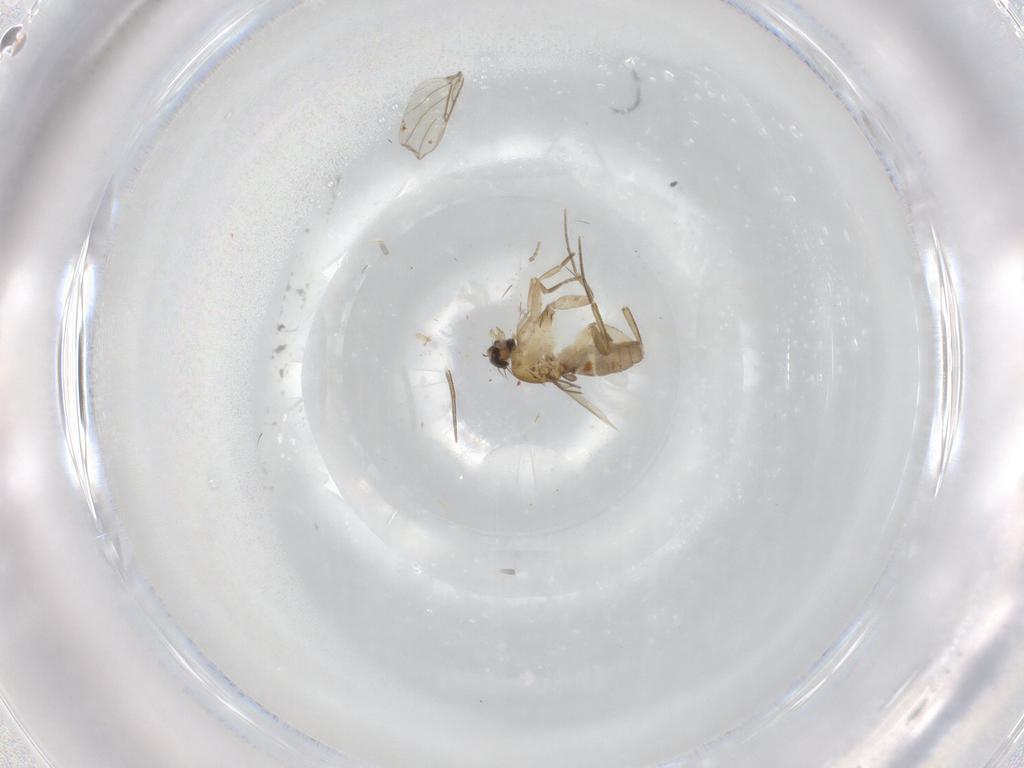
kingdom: Animalia
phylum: Arthropoda
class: Insecta
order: Diptera
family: Phoridae
